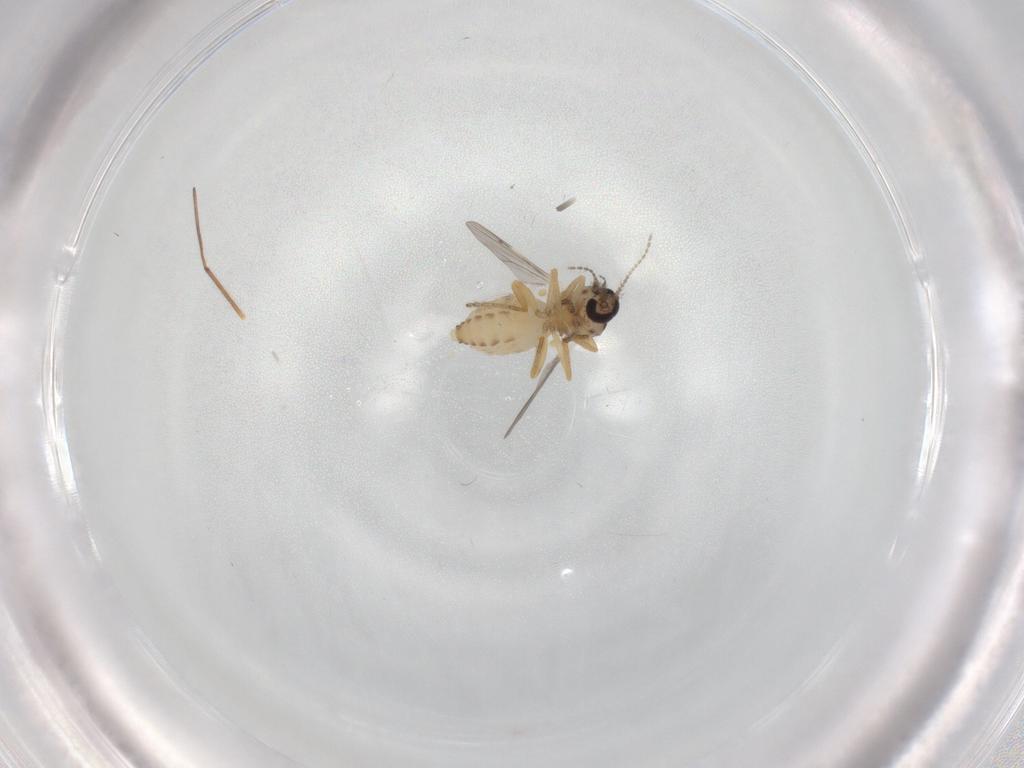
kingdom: Animalia
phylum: Arthropoda
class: Insecta
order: Diptera
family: Ceratopogonidae
